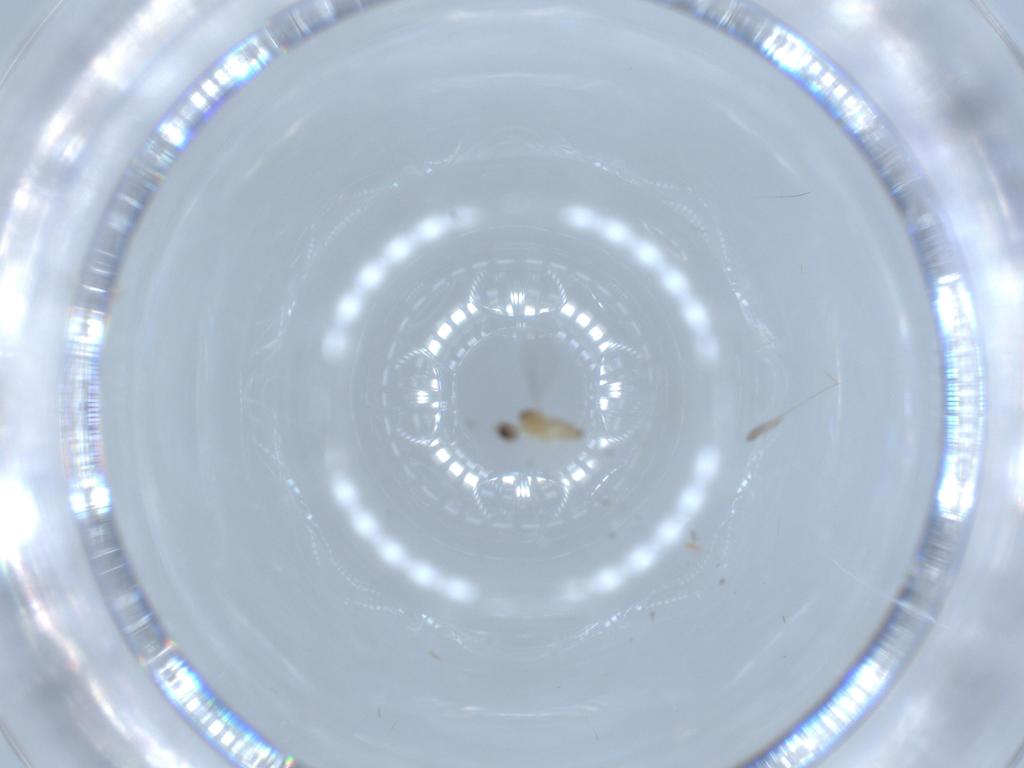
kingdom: Animalia
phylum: Arthropoda
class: Insecta
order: Diptera
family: Cecidomyiidae
